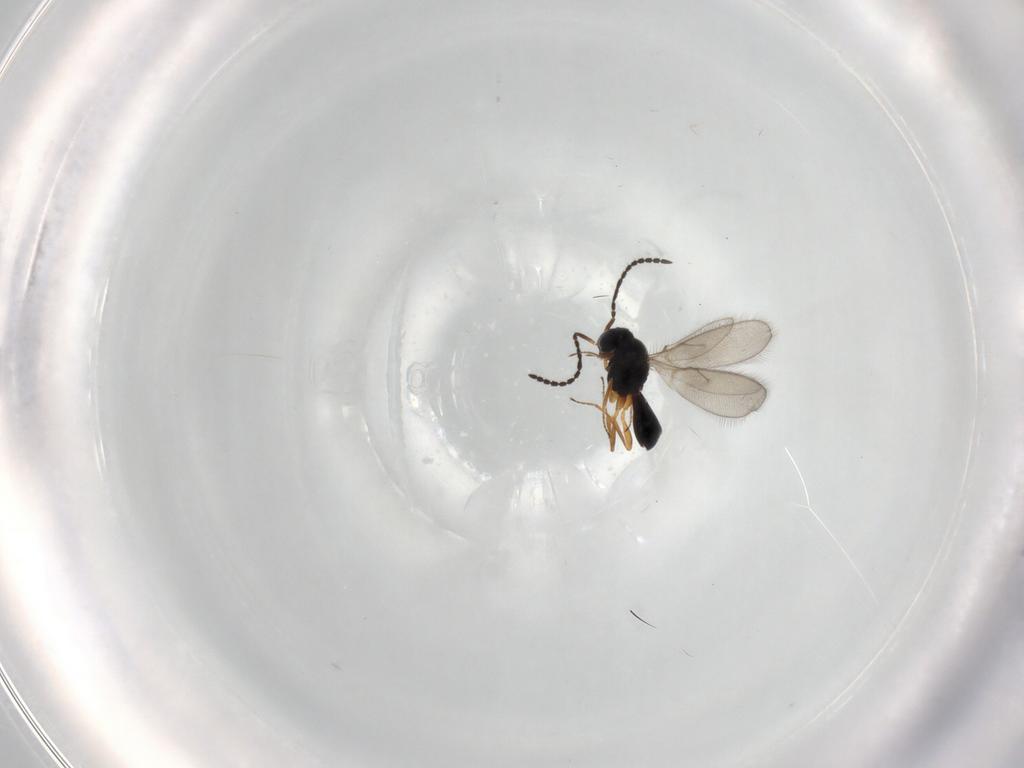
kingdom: Animalia
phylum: Arthropoda
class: Insecta
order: Hymenoptera
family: Scelionidae
